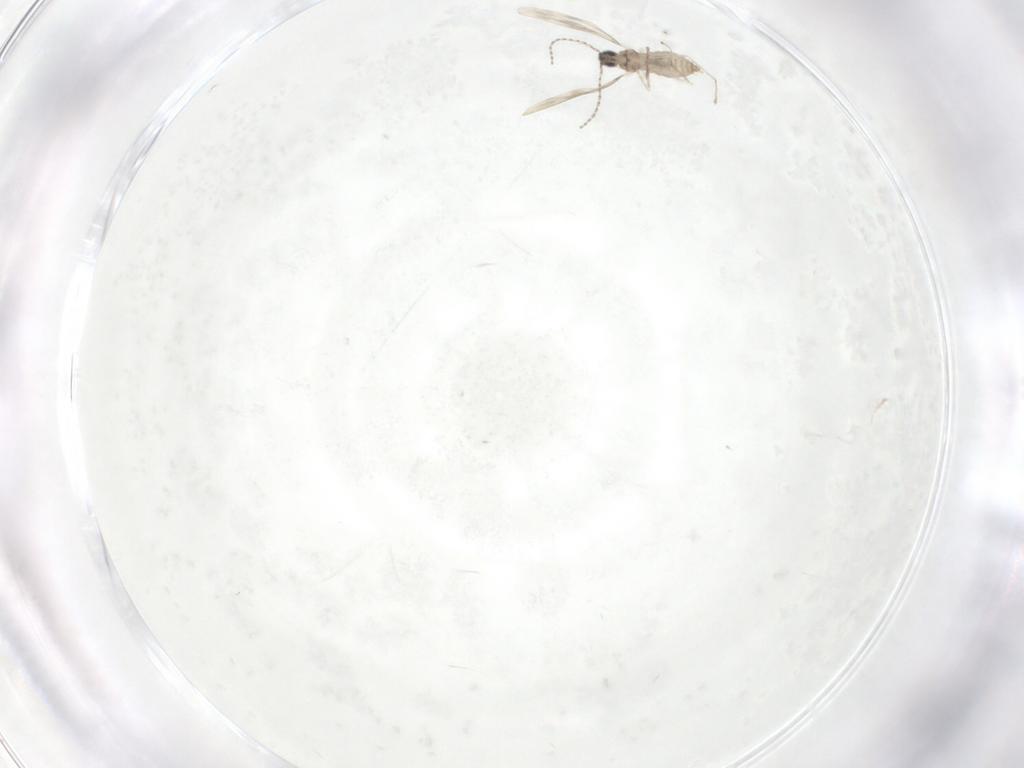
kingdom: Animalia
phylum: Arthropoda
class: Insecta
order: Diptera
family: Cecidomyiidae
